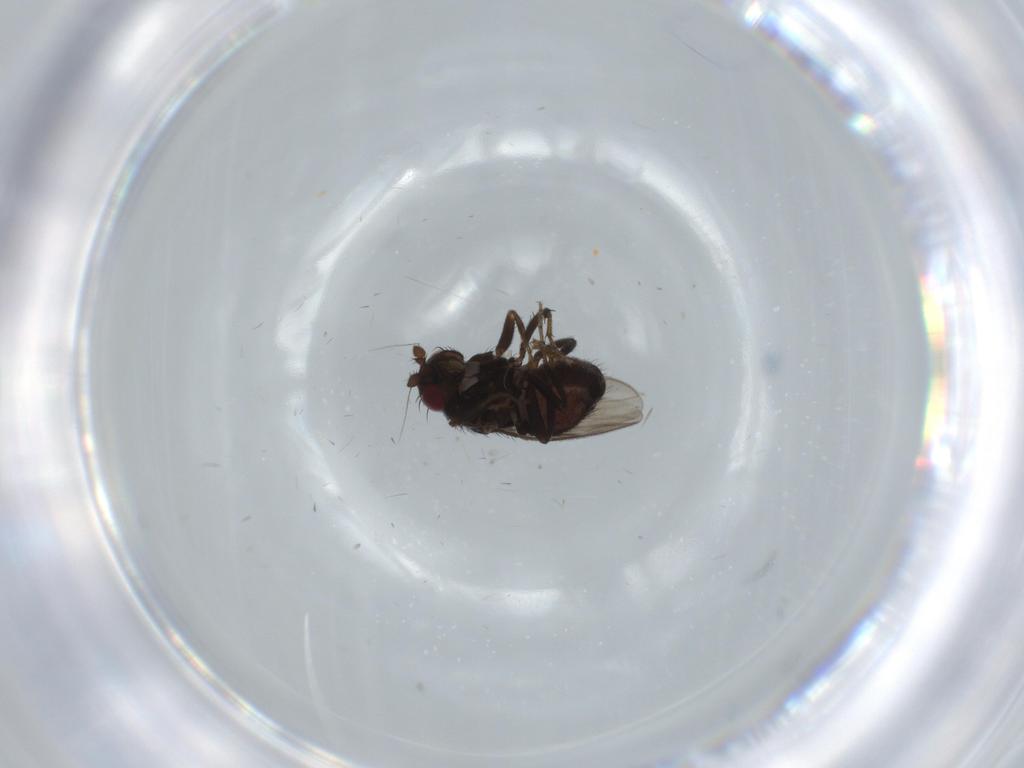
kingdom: Animalia
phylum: Arthropoda
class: Insecta
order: Diptera
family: Sphaeroceridae
